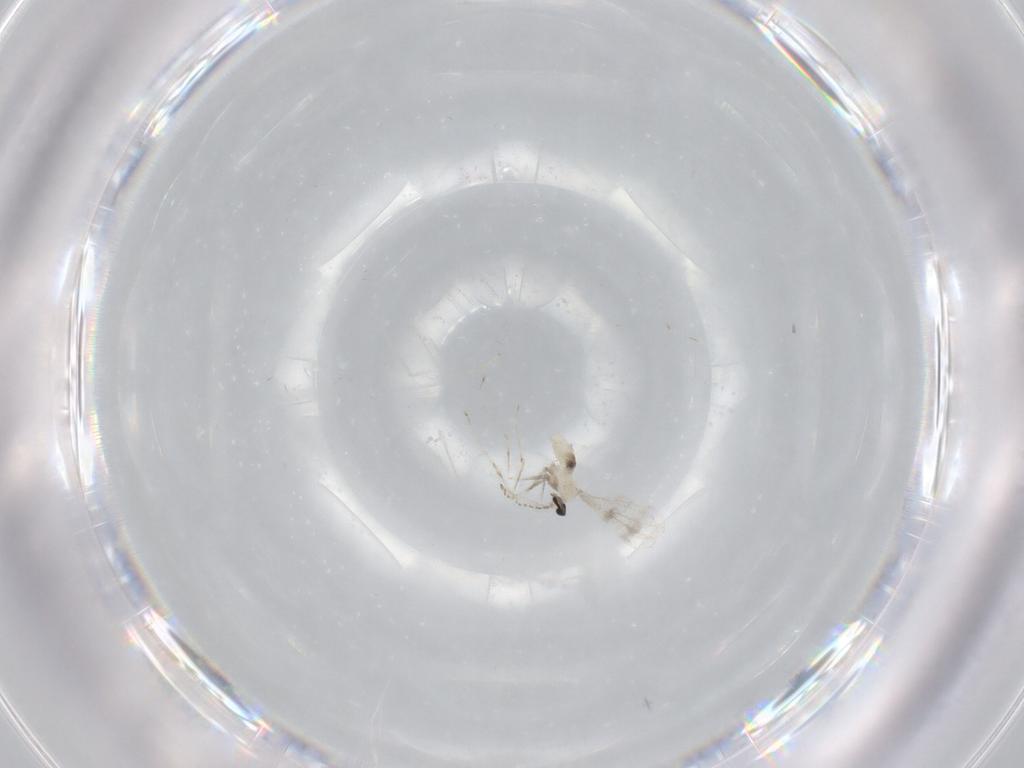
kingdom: Animalia
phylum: Arthropoda
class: Insecta
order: Diptera
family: Cecidomyiidae
